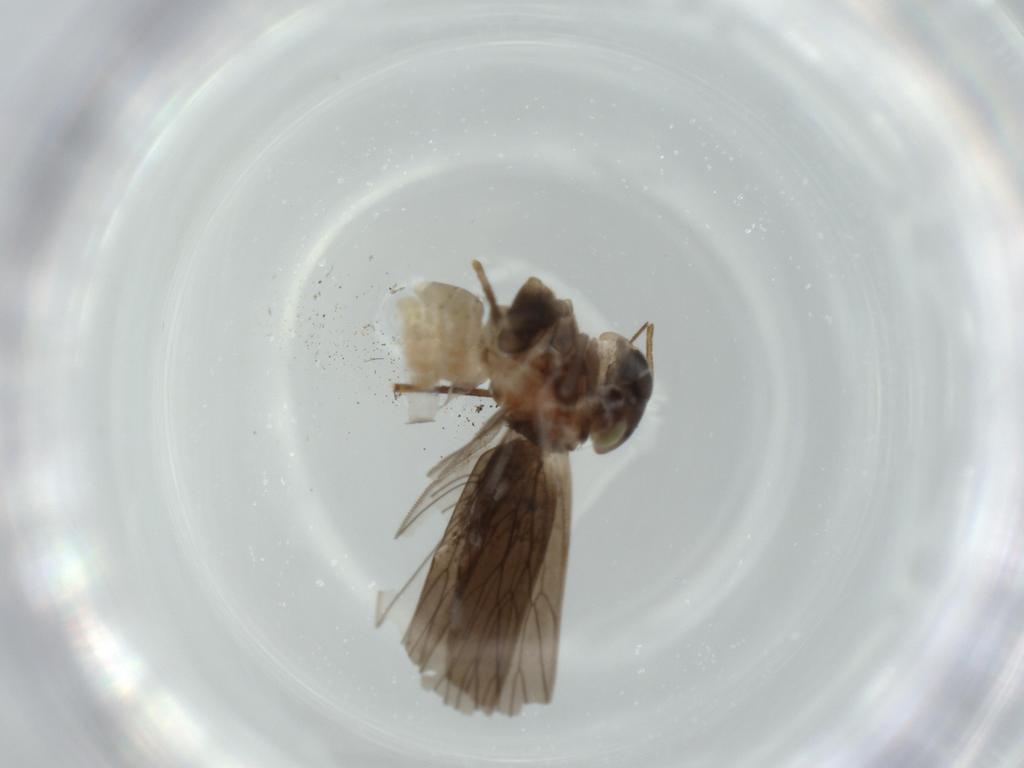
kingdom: Animalia
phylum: Arthropoda
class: Insecta
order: Psocodea
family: Lepidopsocidae
